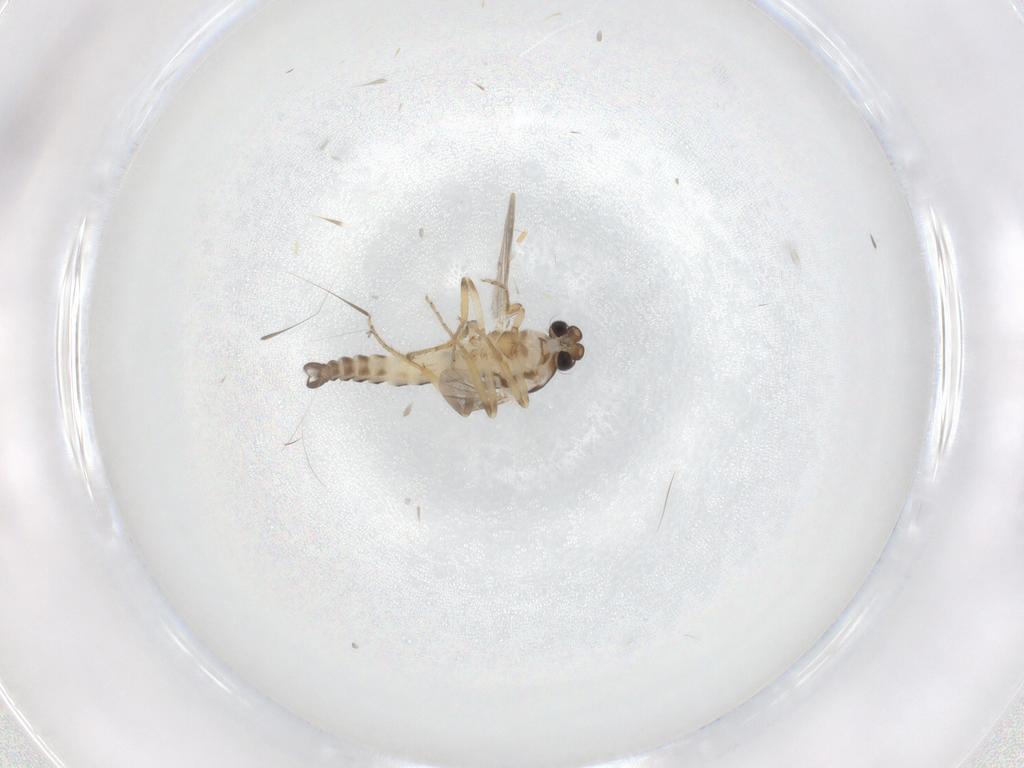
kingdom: Animalia
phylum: Arthropoda
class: Insecta
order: Diptera
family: Ceratopogonidae
